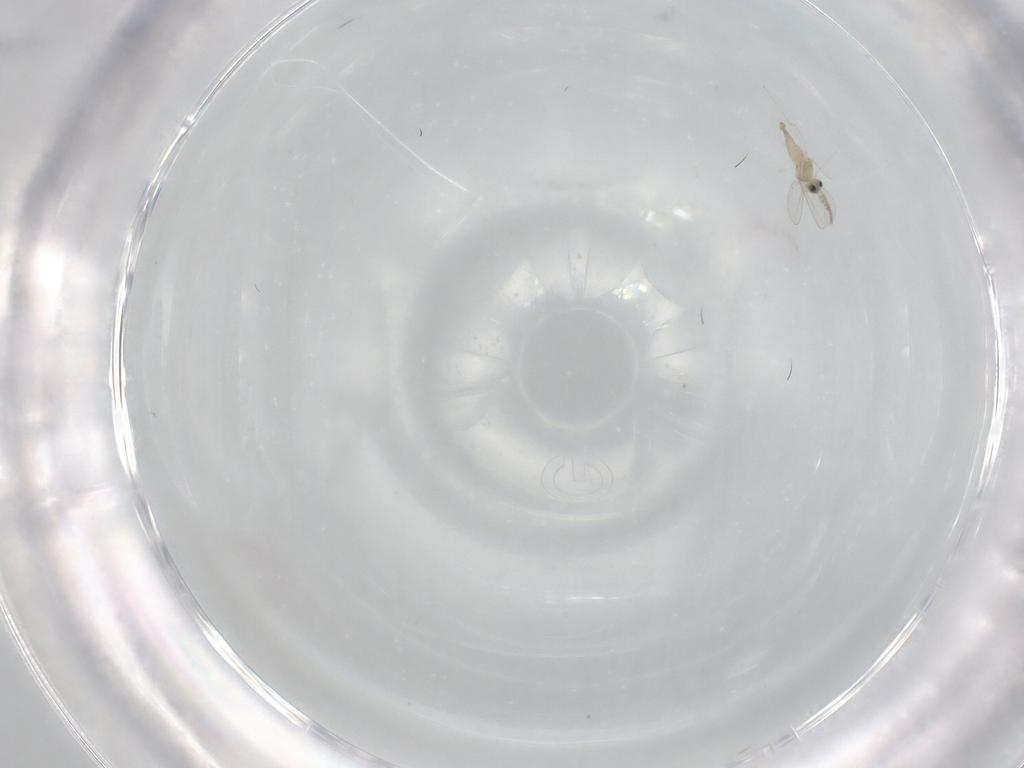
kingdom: Animalia
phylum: Arthropoda
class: Insecta
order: Diptera
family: Cecidomyiidae
